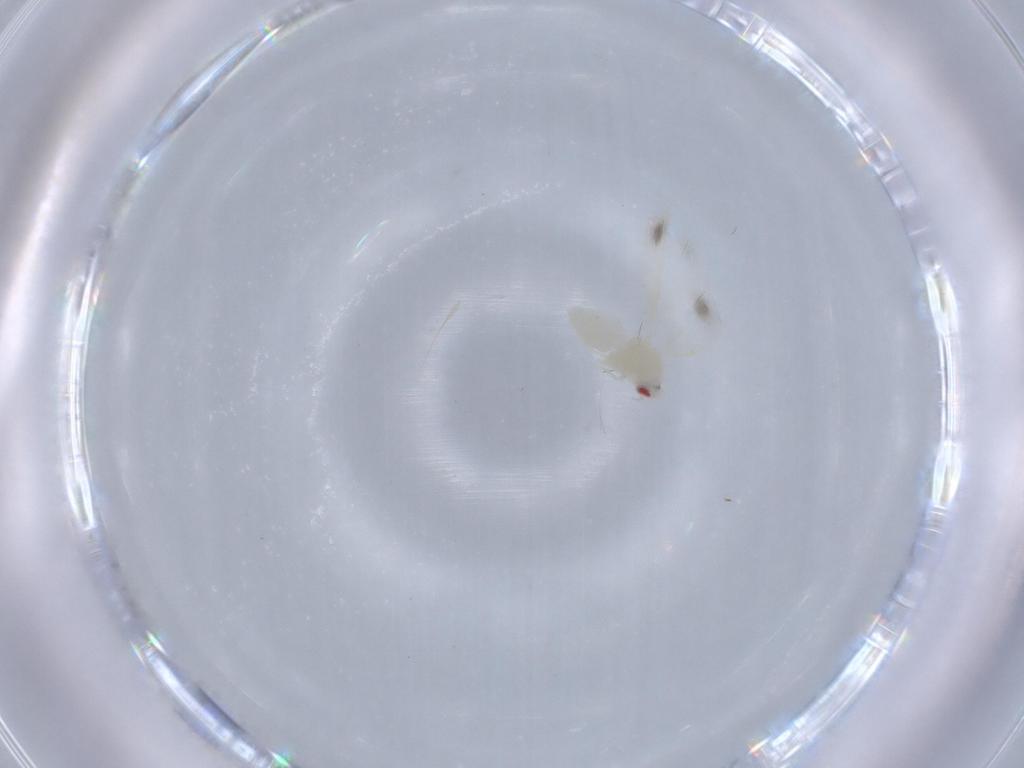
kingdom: Animalia
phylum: Arthropoda
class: Insecta
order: Hemiptera
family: Aleyrodidae
